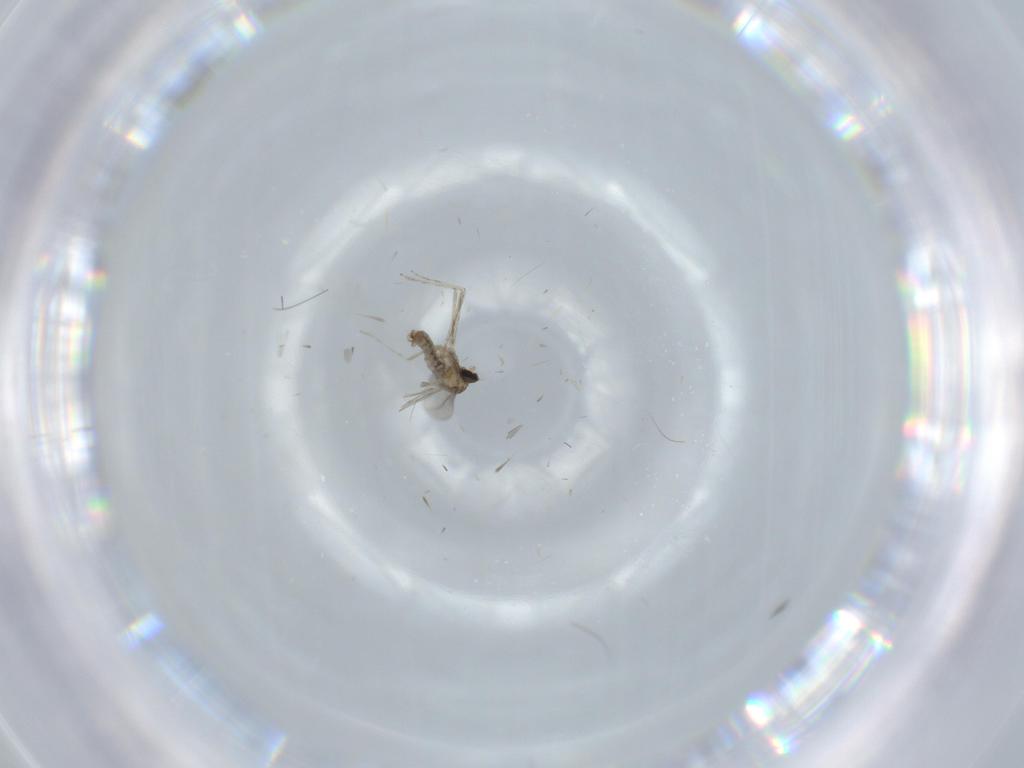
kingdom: Animalia
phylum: Arthropoda
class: Insecta
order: Diptera
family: Cecidomyiidae
